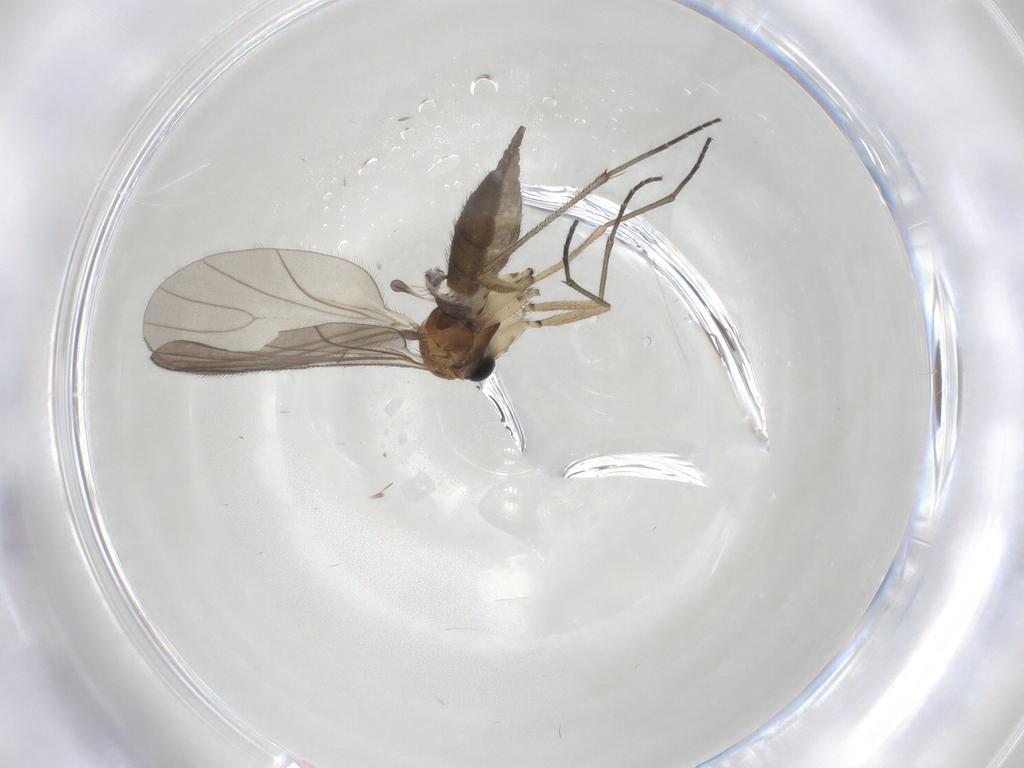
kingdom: Animalia
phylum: Arthropoda
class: Insecta
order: Diptera
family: Sciaridae
